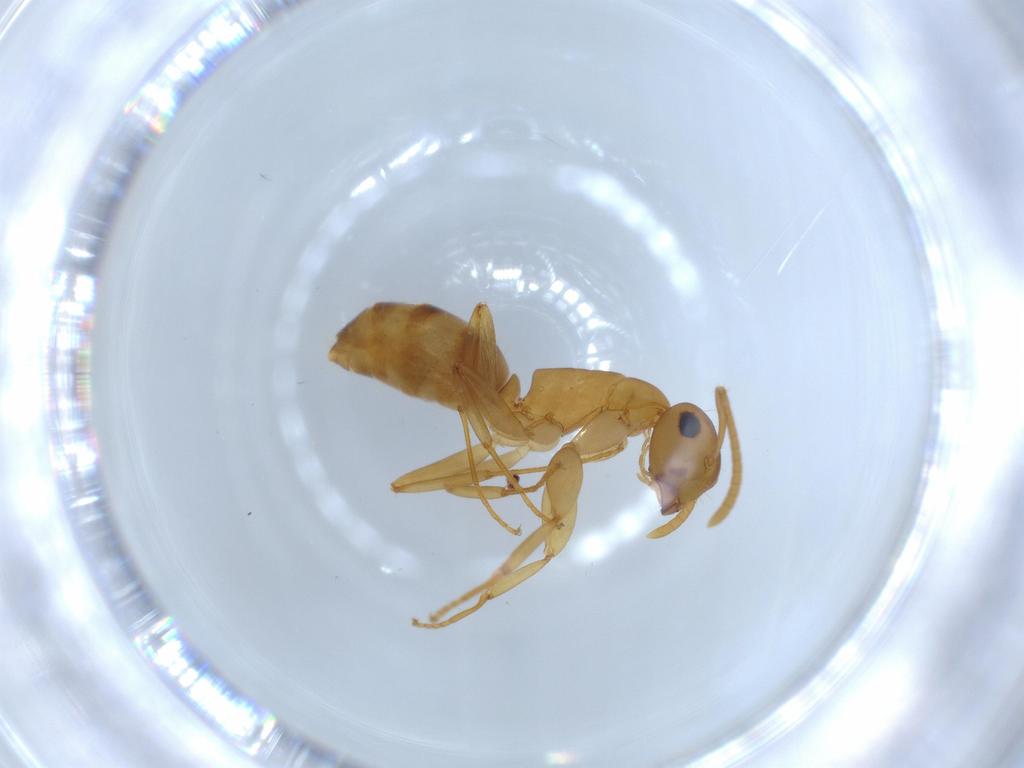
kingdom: Animalia
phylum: Arthropoda
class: Insecta
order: Hymenoptera
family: Formicidae
